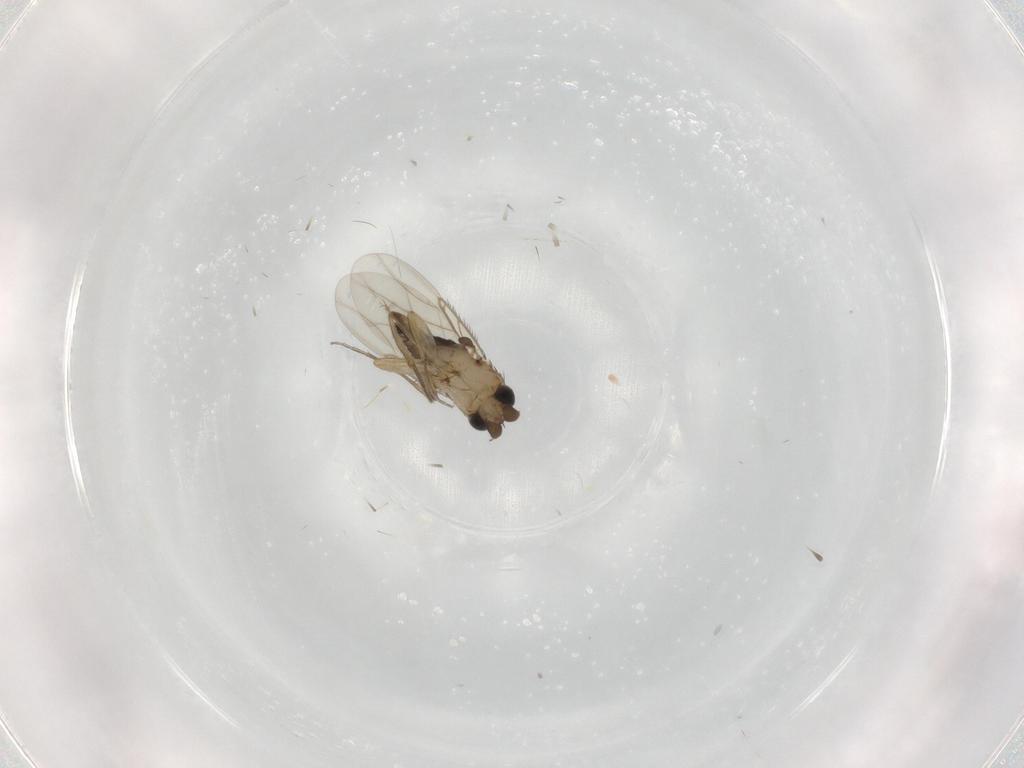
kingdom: Animalia
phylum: Arthropoda
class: Insecta
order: Diptera
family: Phoridae
